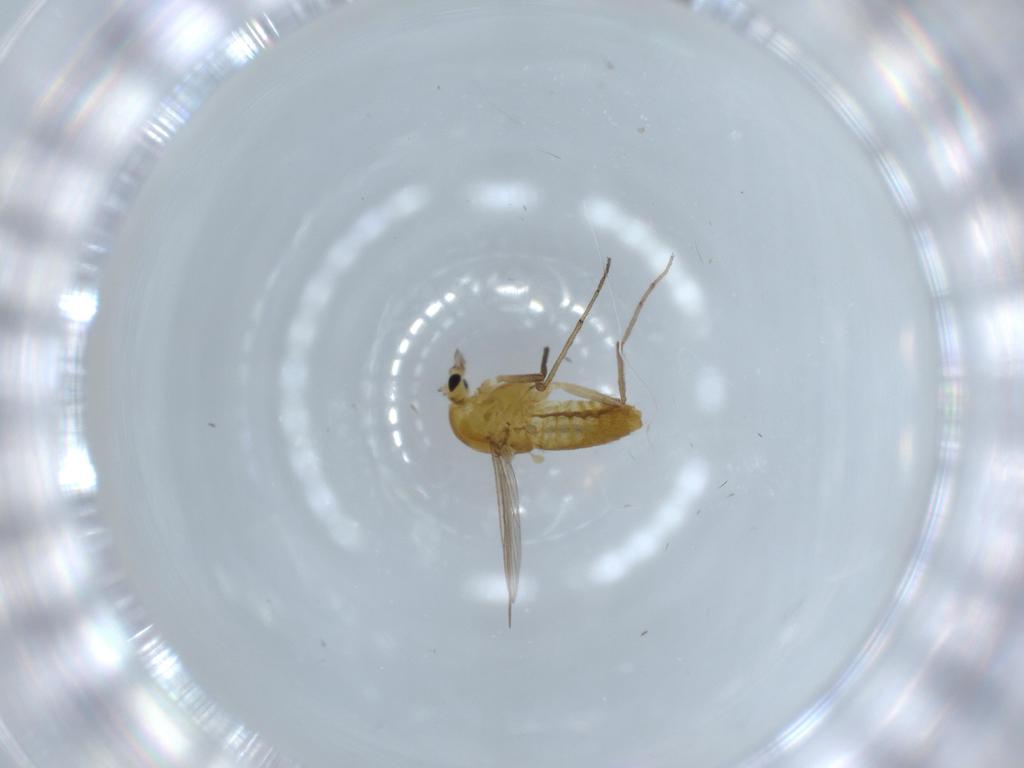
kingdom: Animalia
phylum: Arthropoda
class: Insecta
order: Diptera
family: Chironomidae
